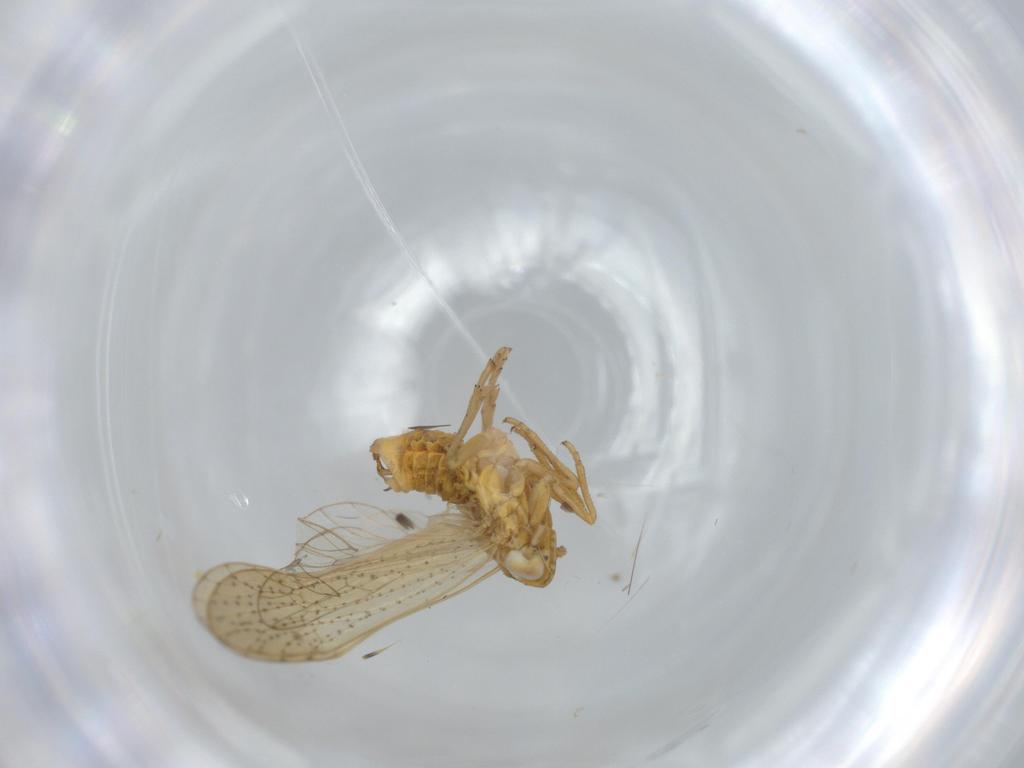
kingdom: Animalia
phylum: Arthropoda
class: Insecta
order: Hemiptera
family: Delphacidae
